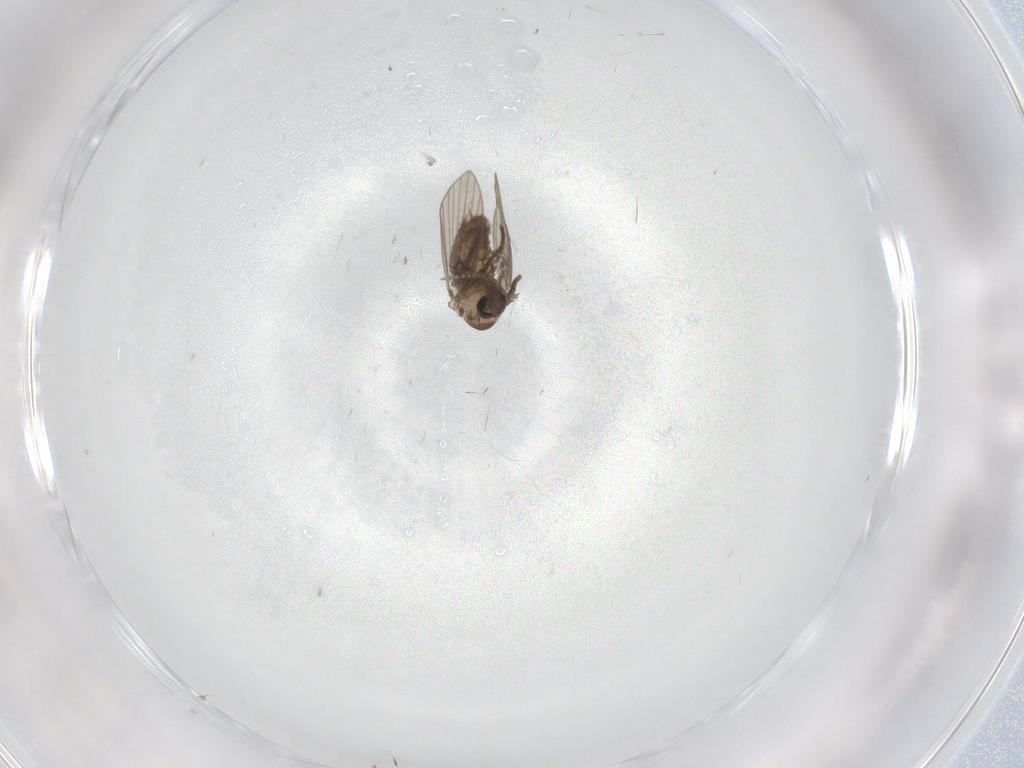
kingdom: Animalia
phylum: Arthropoda
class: Insecta
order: Diptera
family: Psychodidae
